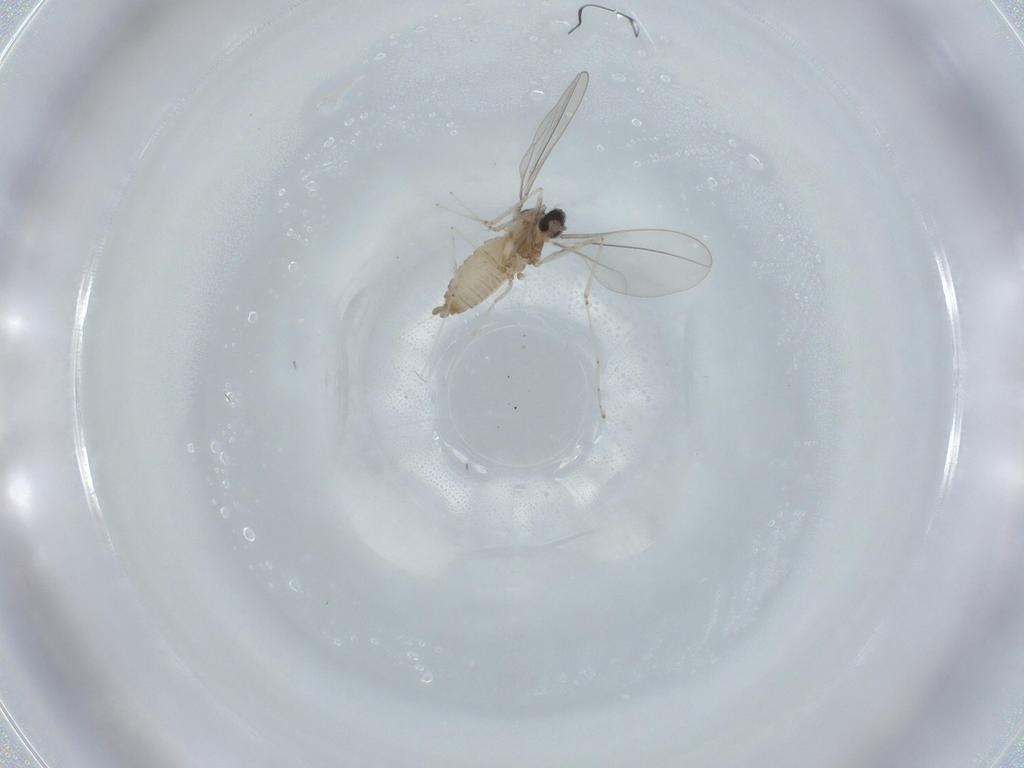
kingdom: Animalia
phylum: Arthropoda
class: Insecta
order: Diptera
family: Cecidomyiidae
